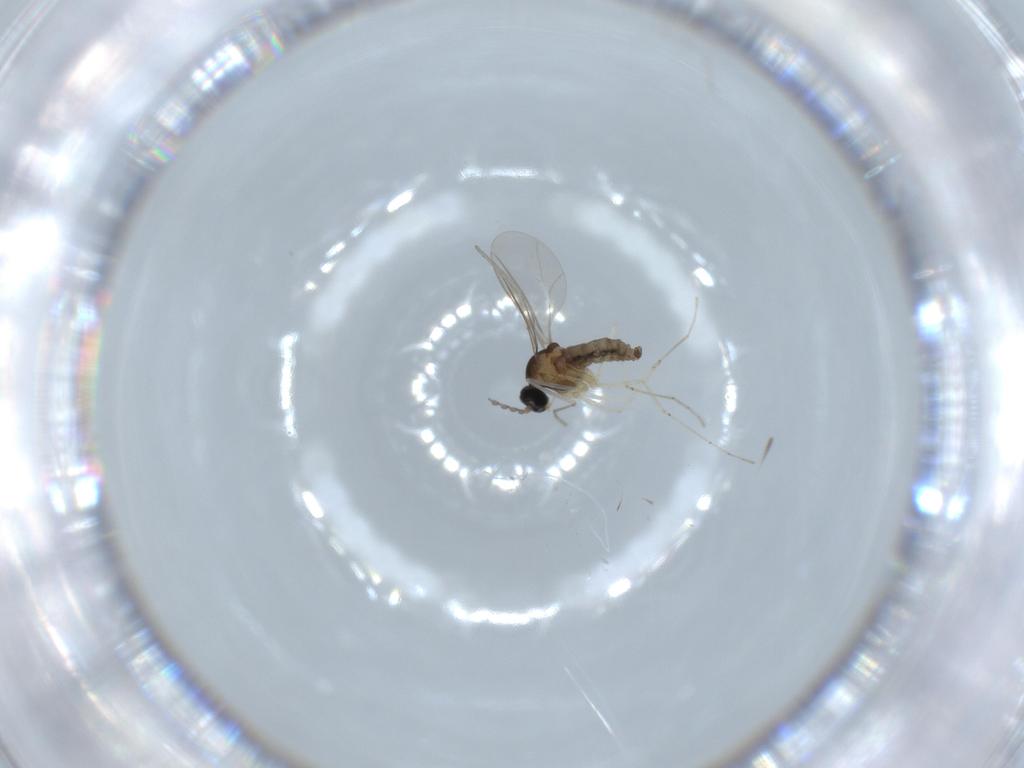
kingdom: Animalia
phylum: Arthropoda
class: Insecta
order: Diptera
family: Cecidomyiidae
